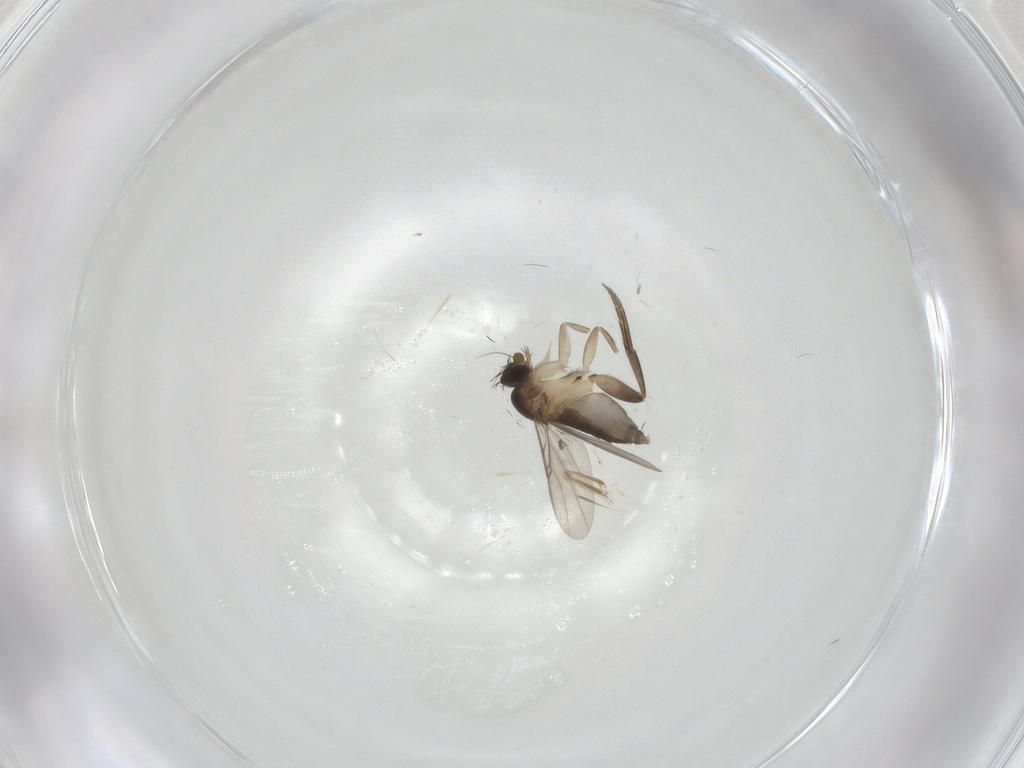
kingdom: Animalia
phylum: Arthropoda
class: Insecta
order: Diptera
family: Phoridae
